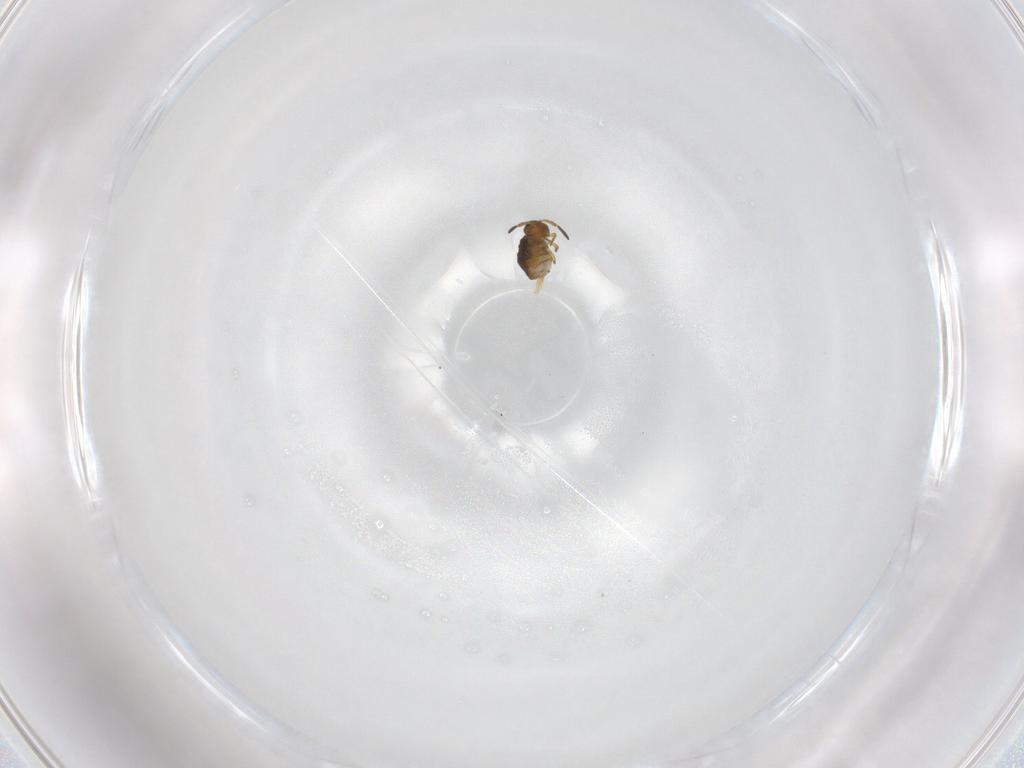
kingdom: Animalia
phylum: Arthropoda
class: Collembola
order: Symphypleona
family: Katiannidae
